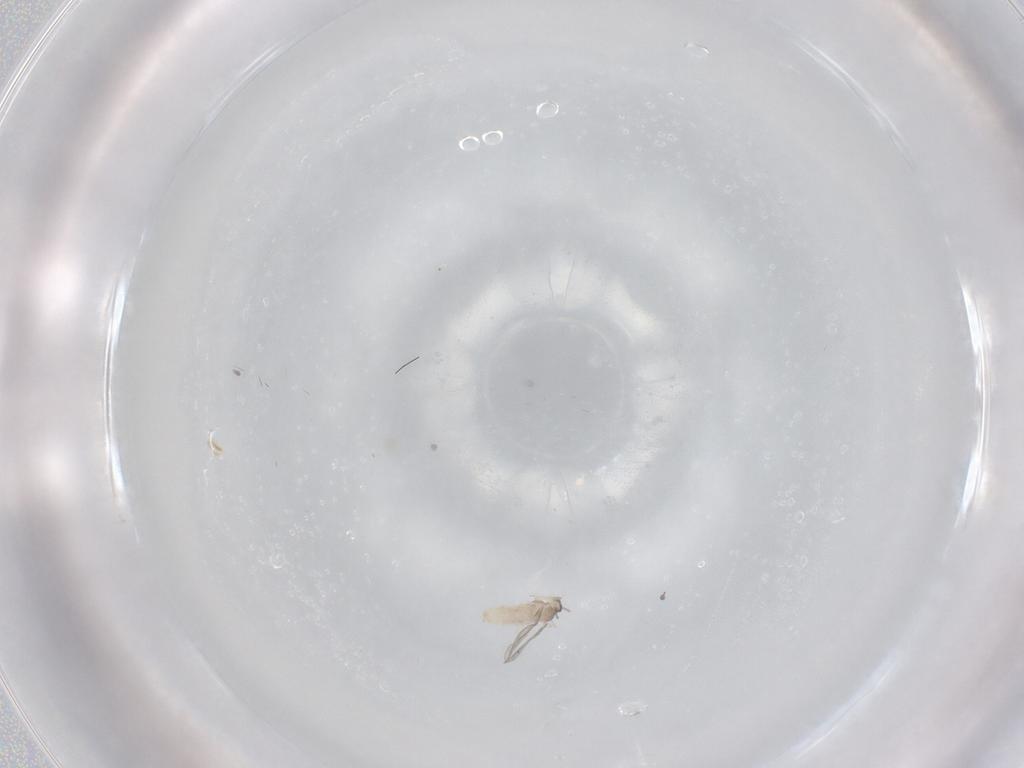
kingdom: Animalia
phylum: Arthropoda
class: Insecta
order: Diptera
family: Cecidomyiidae
